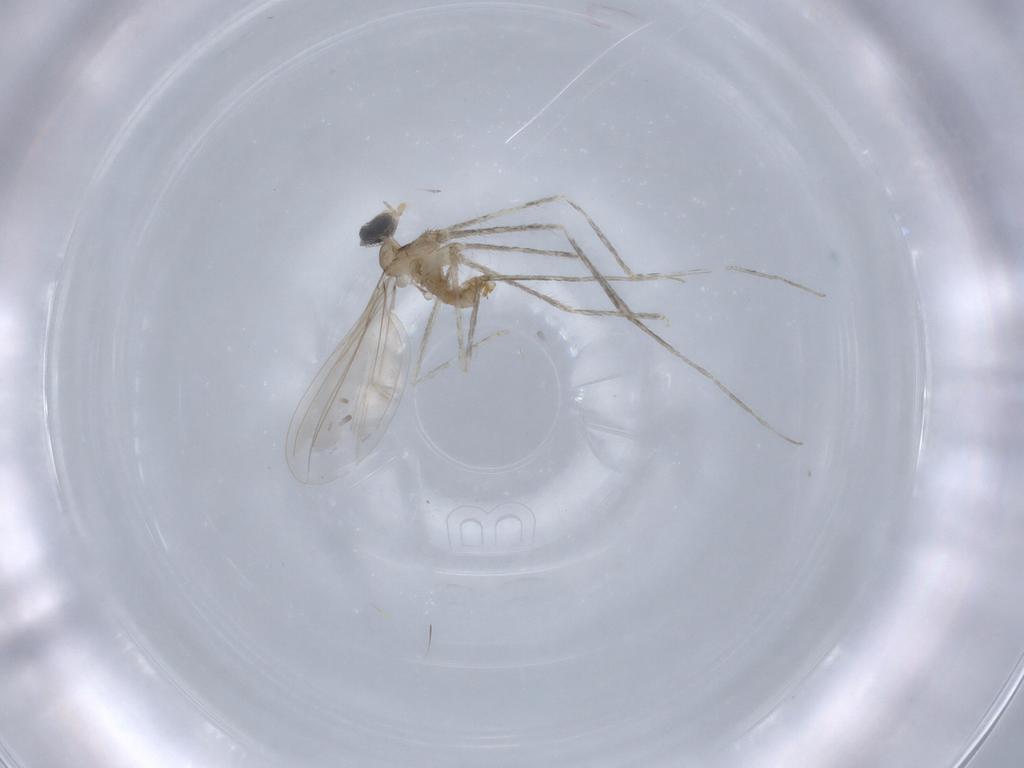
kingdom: Animalia
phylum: Arthropoda
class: Insecta
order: Diptera
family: Cecidomyiidae
